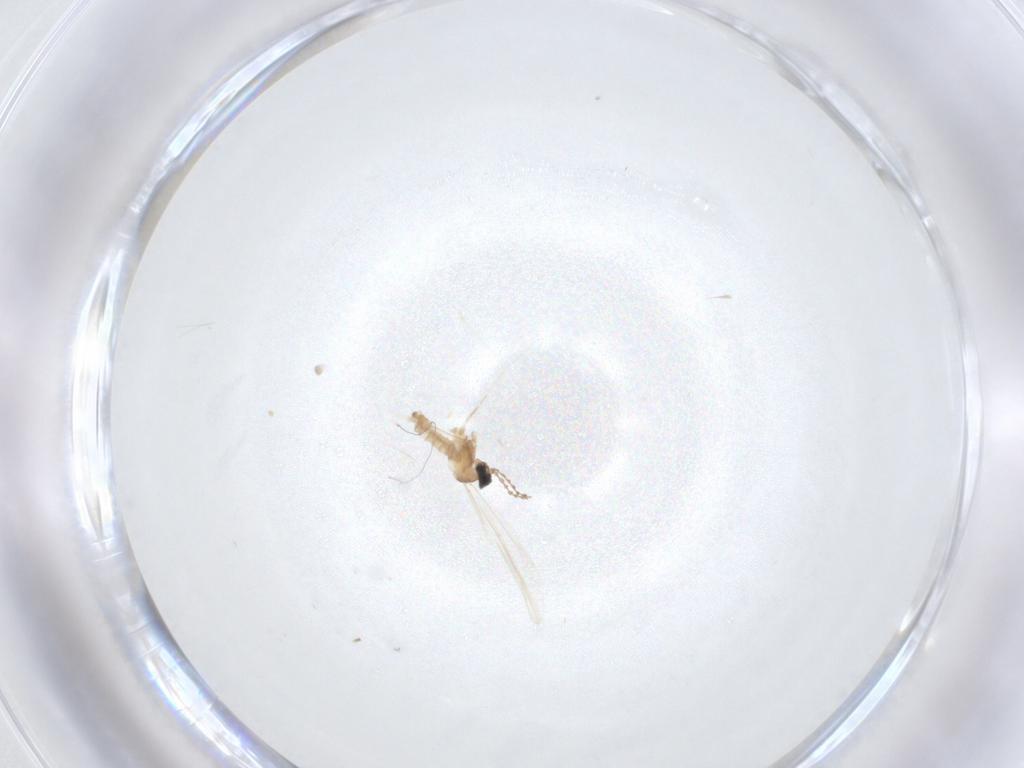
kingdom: Animalia
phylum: Arthropoda
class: Insecta
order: Diptera
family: Cecidomyiidae
